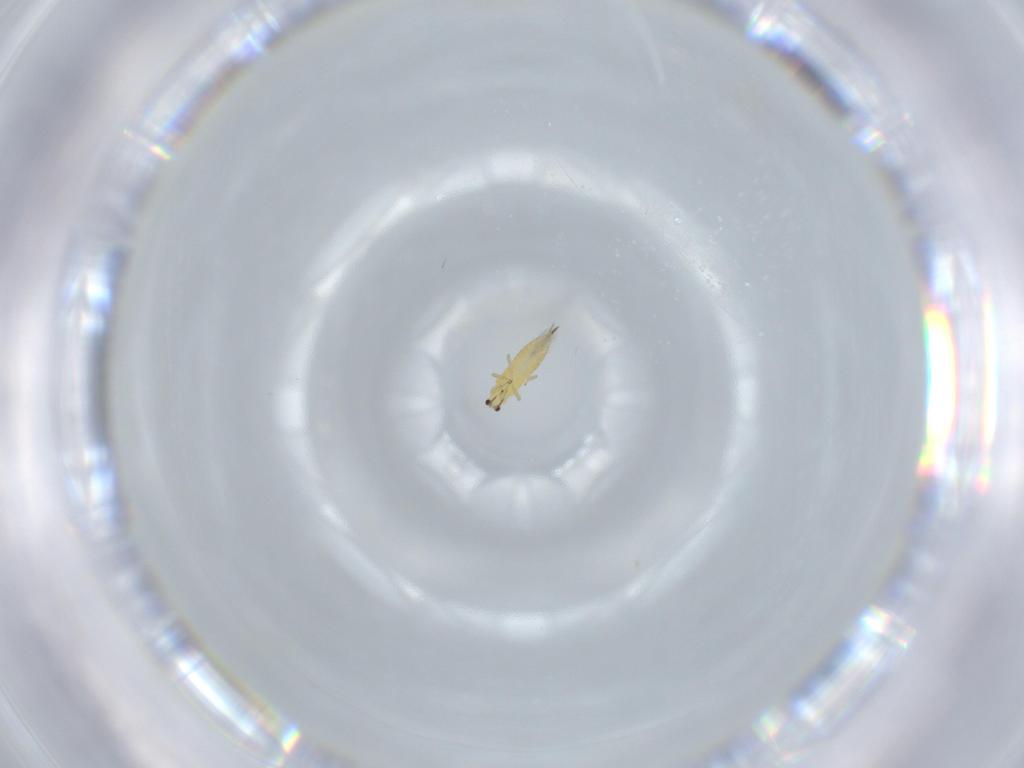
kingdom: Animalia
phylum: Arthropoda
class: Insecta
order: Thysanoptera
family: Thripidae
